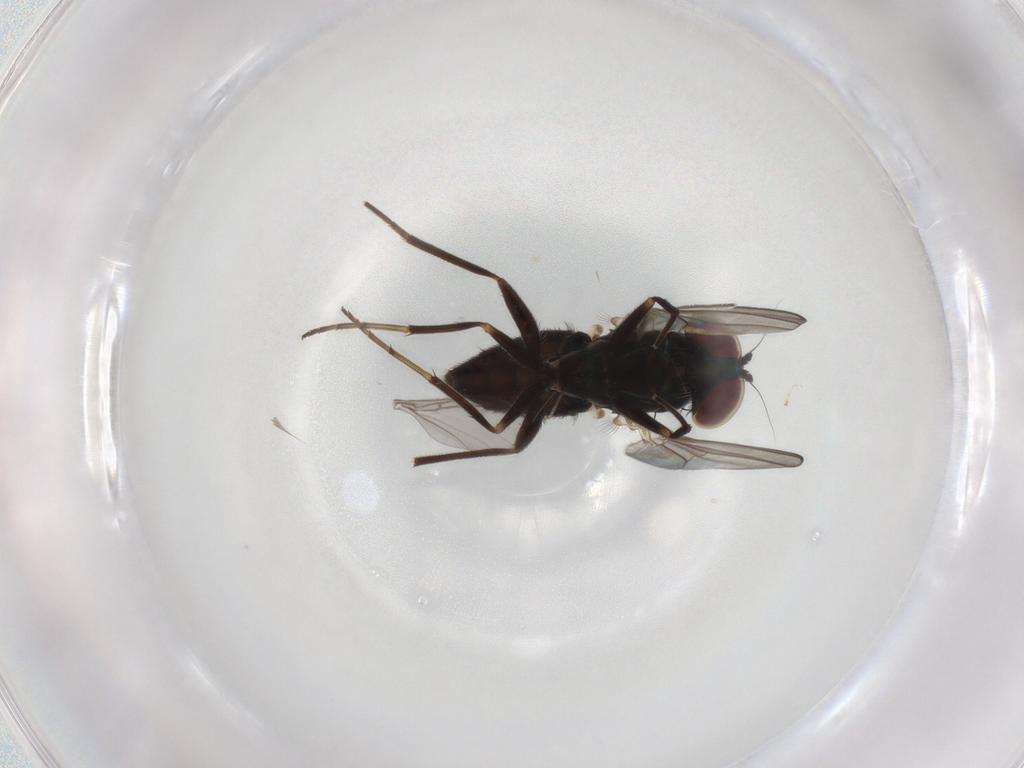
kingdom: Animalia
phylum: Arthropoda
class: Insecta
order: Diptera
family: Dolichopodidae
